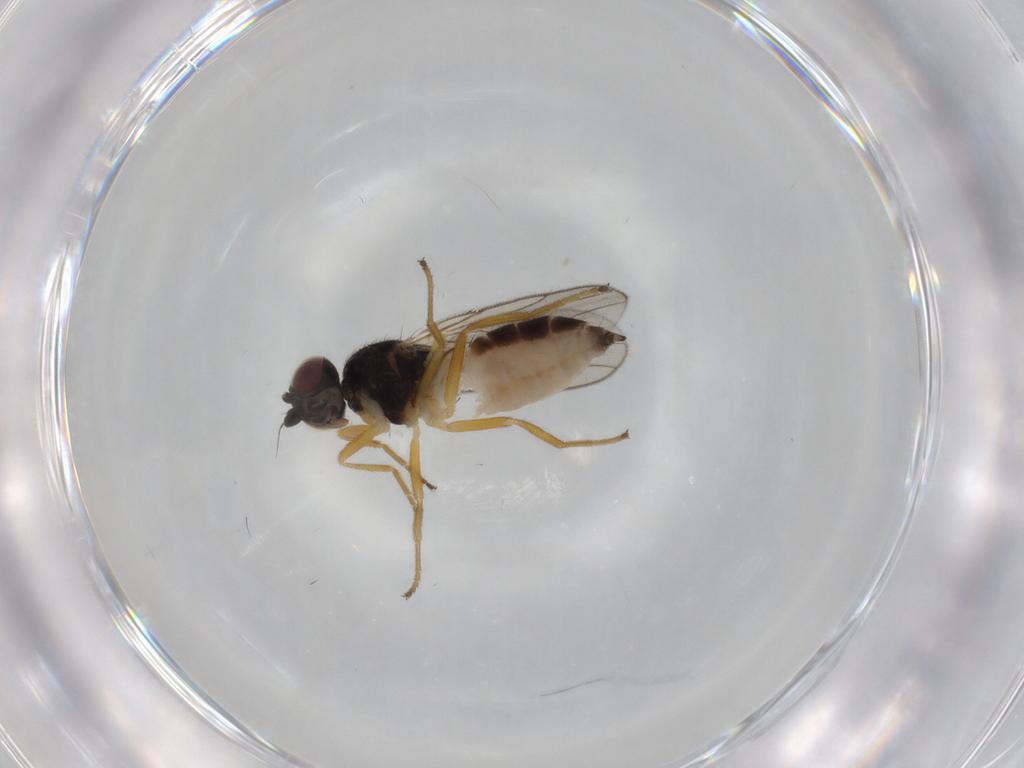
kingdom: Animalia
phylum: Arthropoda
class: Insecta
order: Diptera
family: Chloropidae
